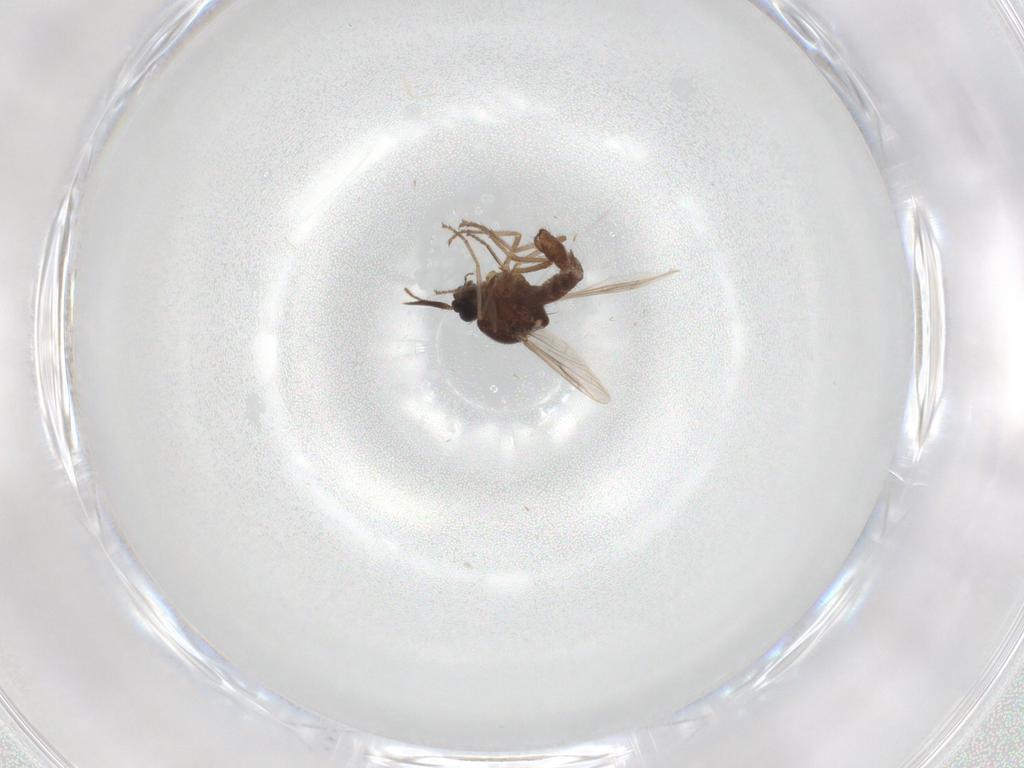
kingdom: Animalia
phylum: Arthropoda
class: Insecta
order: Diptera
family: Ceratopogonidae
